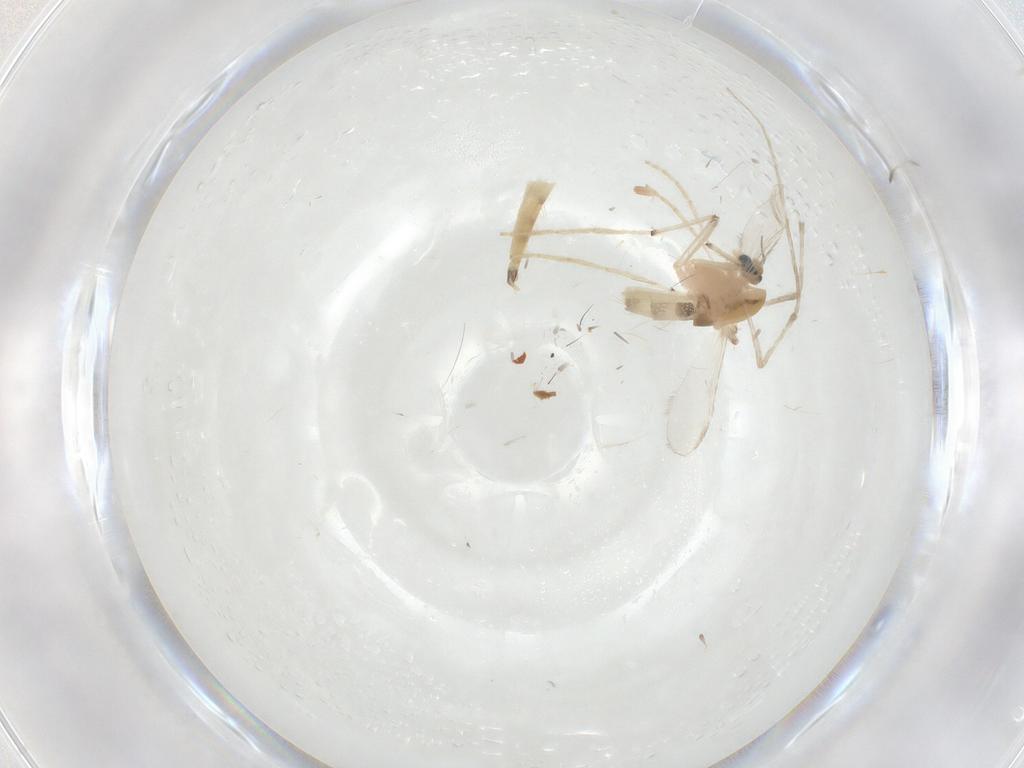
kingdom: Animalia
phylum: Arthropoda
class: Insecta
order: Diptera
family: Chironomidae
